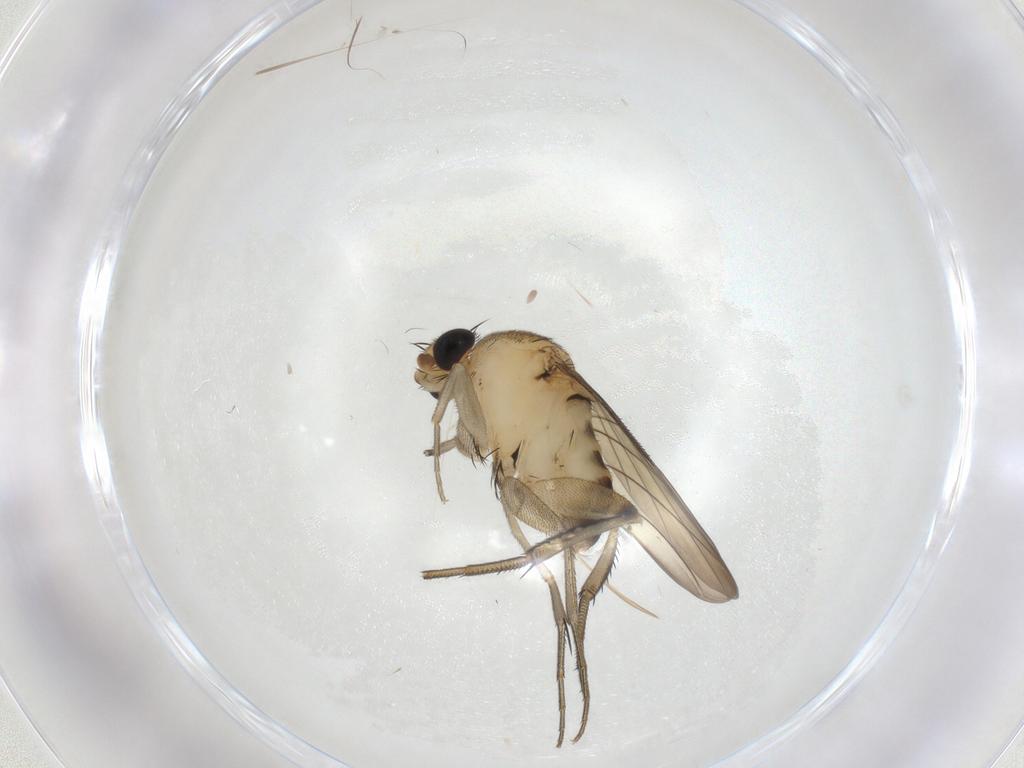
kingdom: Animalia
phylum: Arthropoda
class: Insecta
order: Diptera
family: Phoridae
